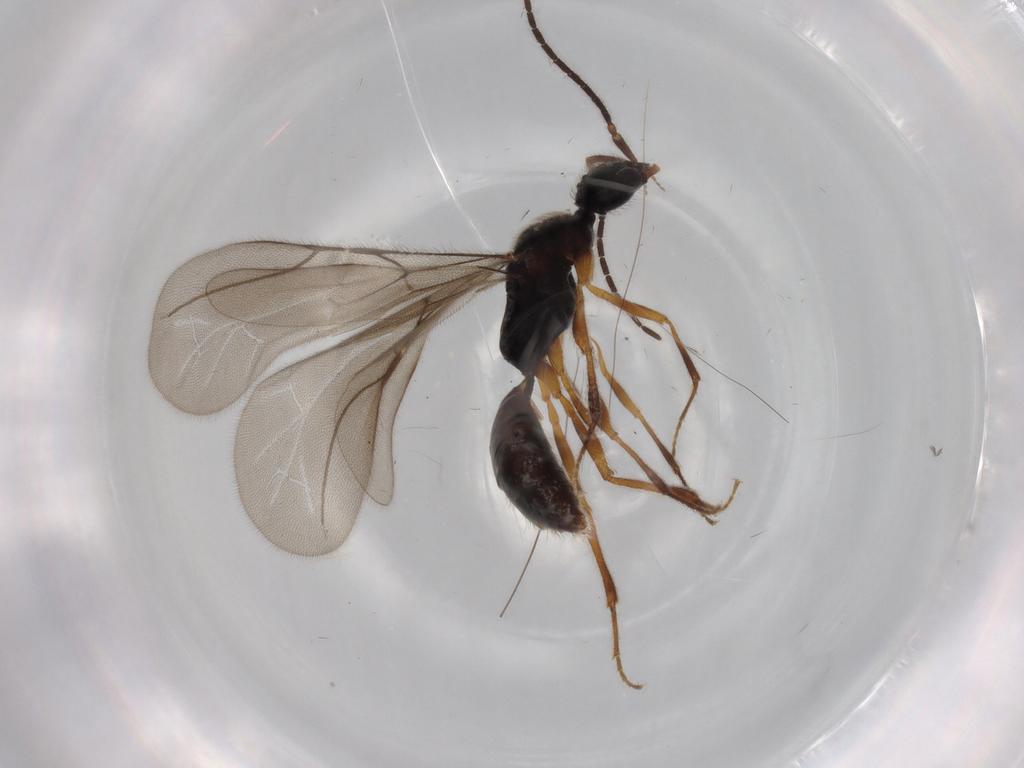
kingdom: Animalia
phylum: Arthropoda
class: Insecta
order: Hymenoptera
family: Bethylidae
